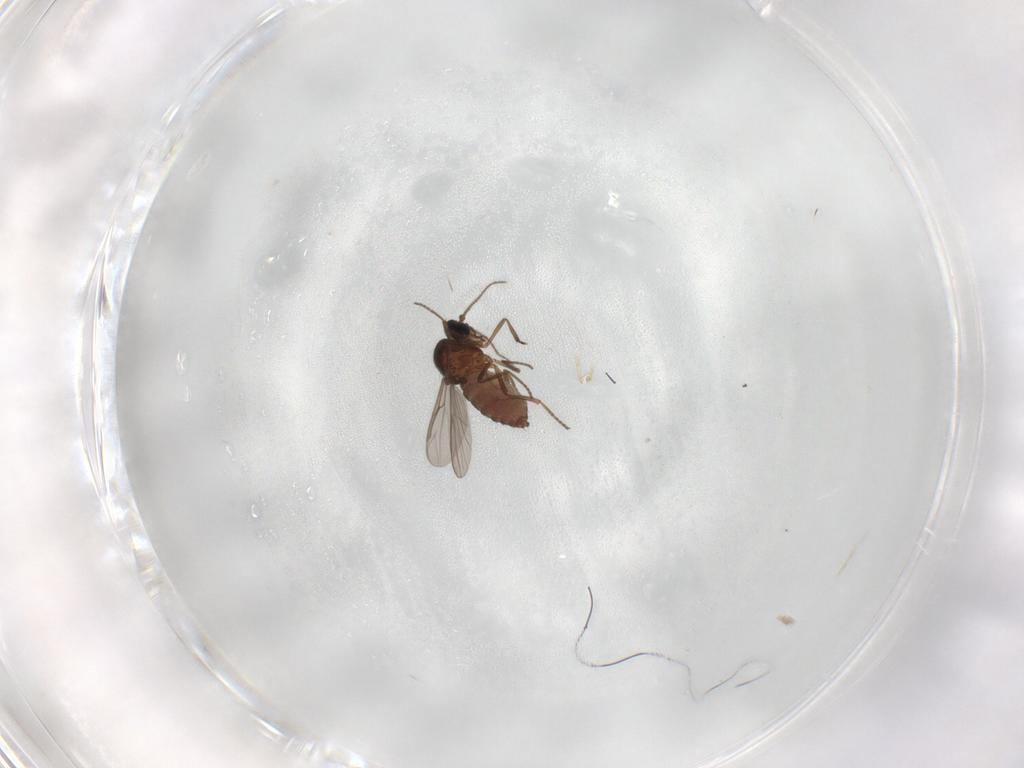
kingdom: Animalia
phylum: Arthropoda
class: Insecta
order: Diptera
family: Ceratopogonidae
